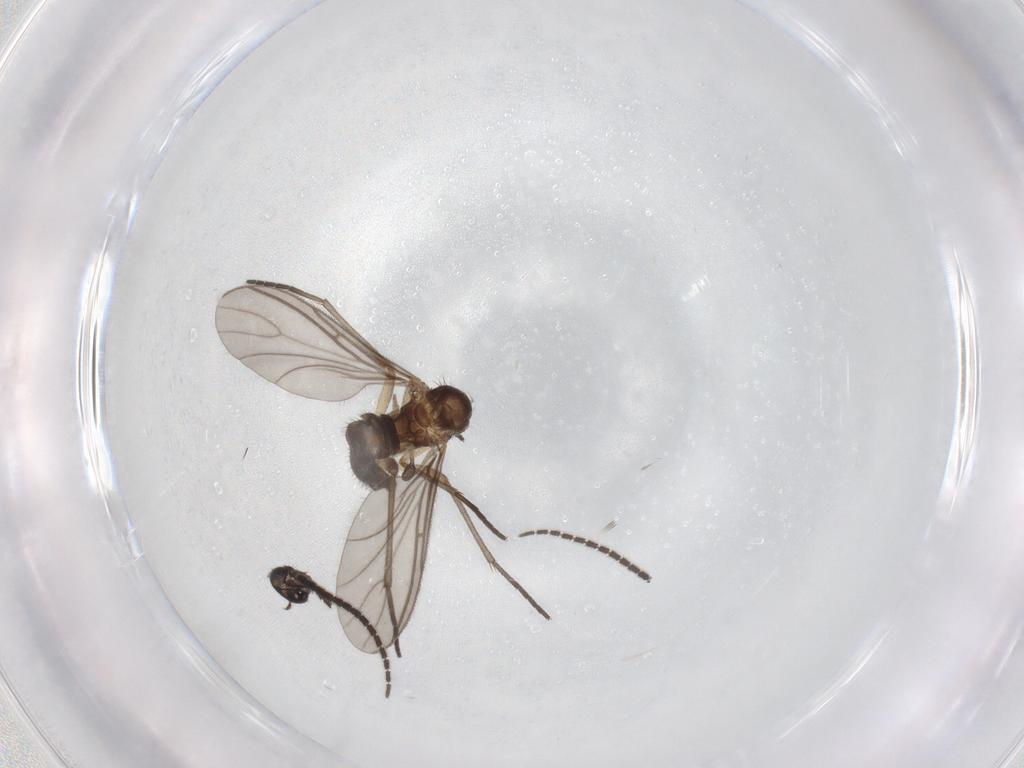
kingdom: Animalia
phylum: Arthropoda
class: Insecta
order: Diptera
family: Sciaridae
